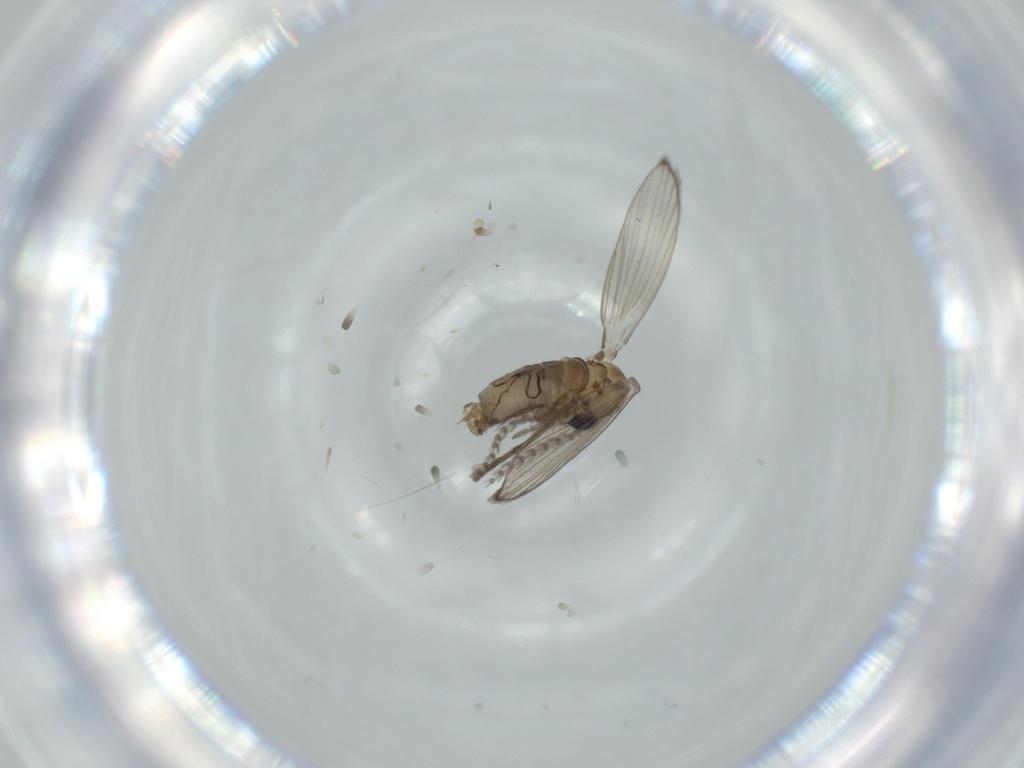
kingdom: Animalia
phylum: Arthropoda
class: Insecta
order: Diptera
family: Psychodidae
